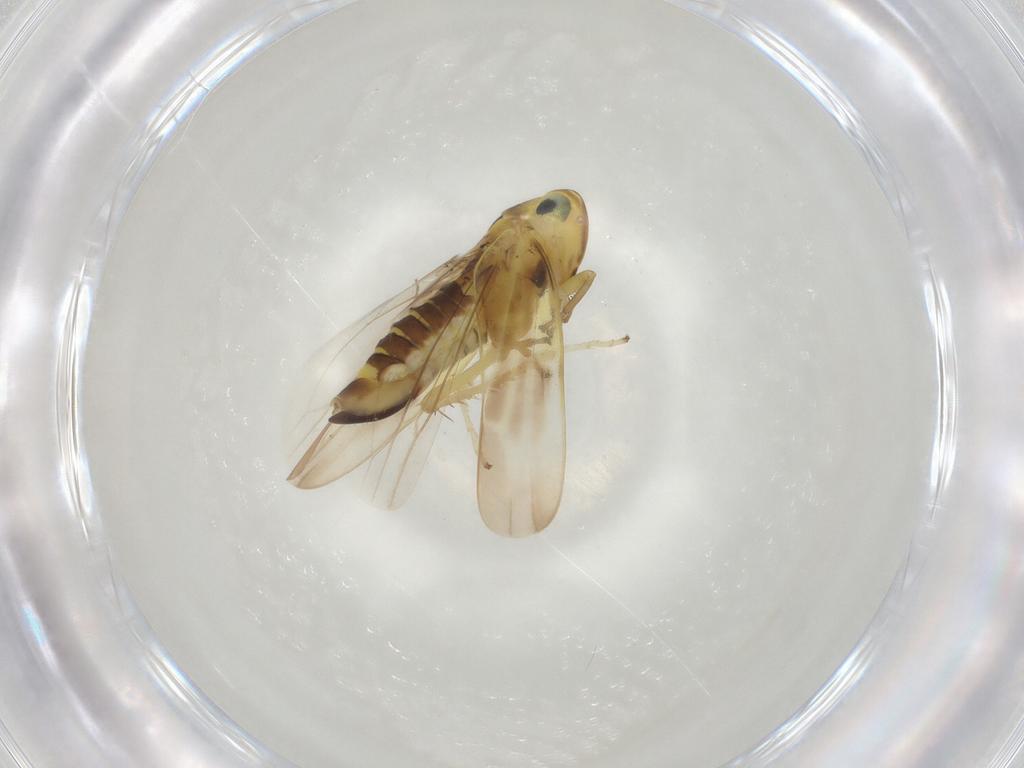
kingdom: Animalia
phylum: Arthropoda
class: Insecta
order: Hemiptera
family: Cicadellidae
